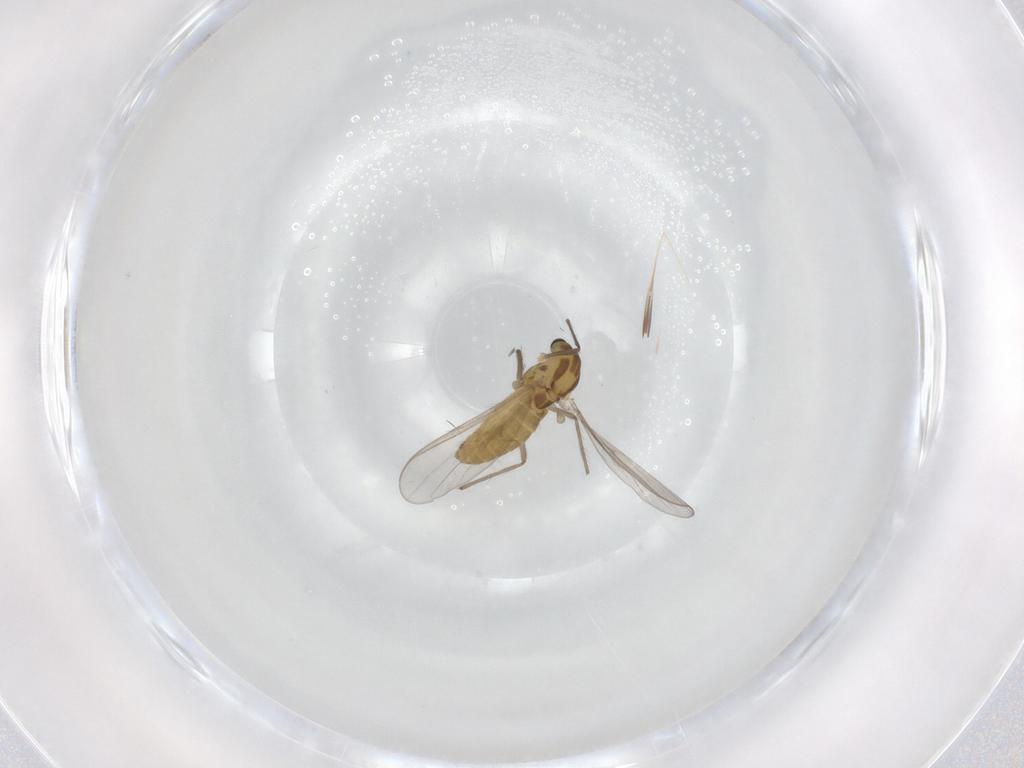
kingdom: Animalia
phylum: Arthropoda
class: Insecta
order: Diptera
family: Chironomidae
